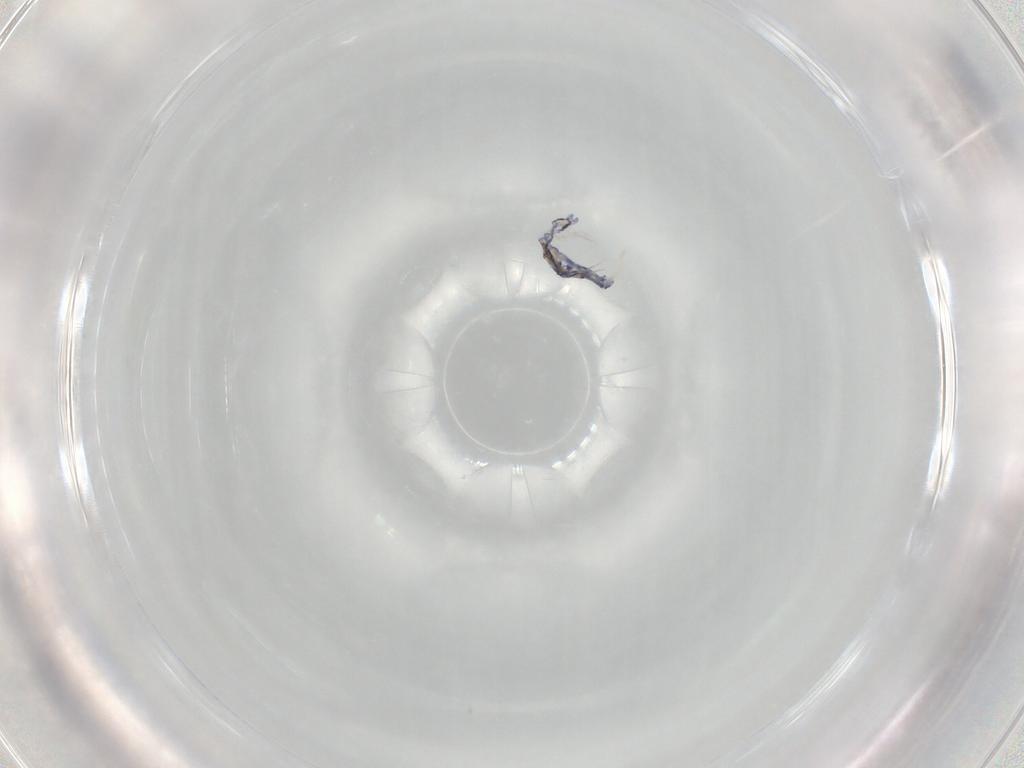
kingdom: Animalia
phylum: Arthropoda
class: Collembola
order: Entomobryomorpha
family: Entomobryidae
